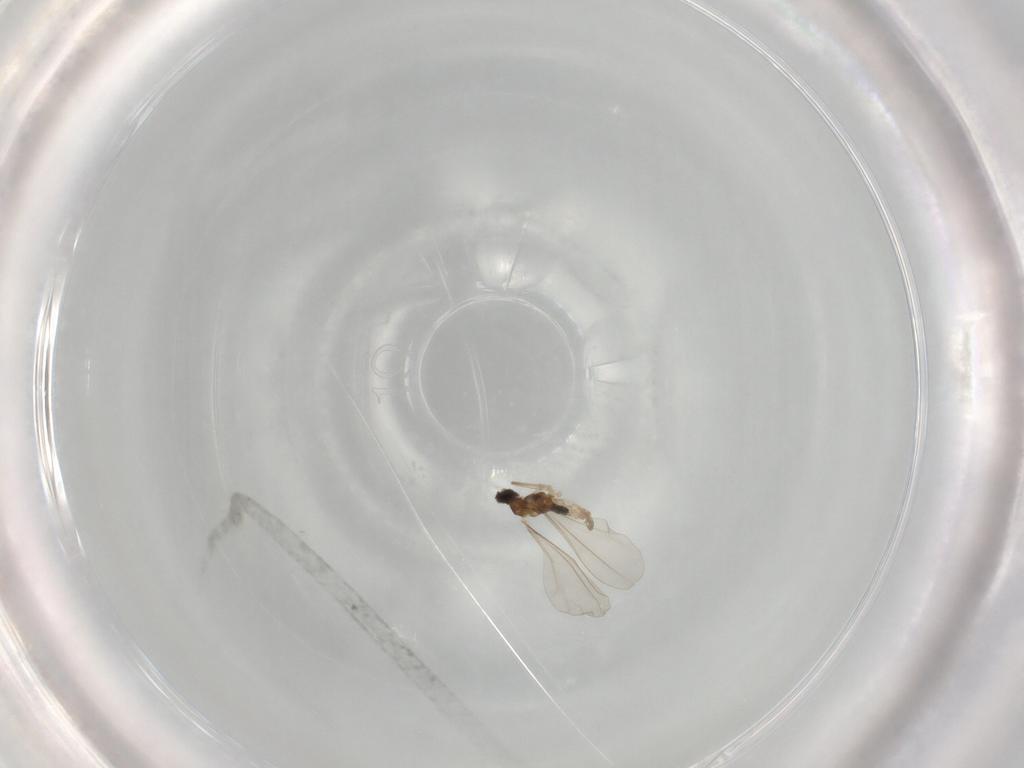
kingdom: Animalia
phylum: Arthropoda
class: Insecta
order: Diptera
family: Cecidomyiidae
